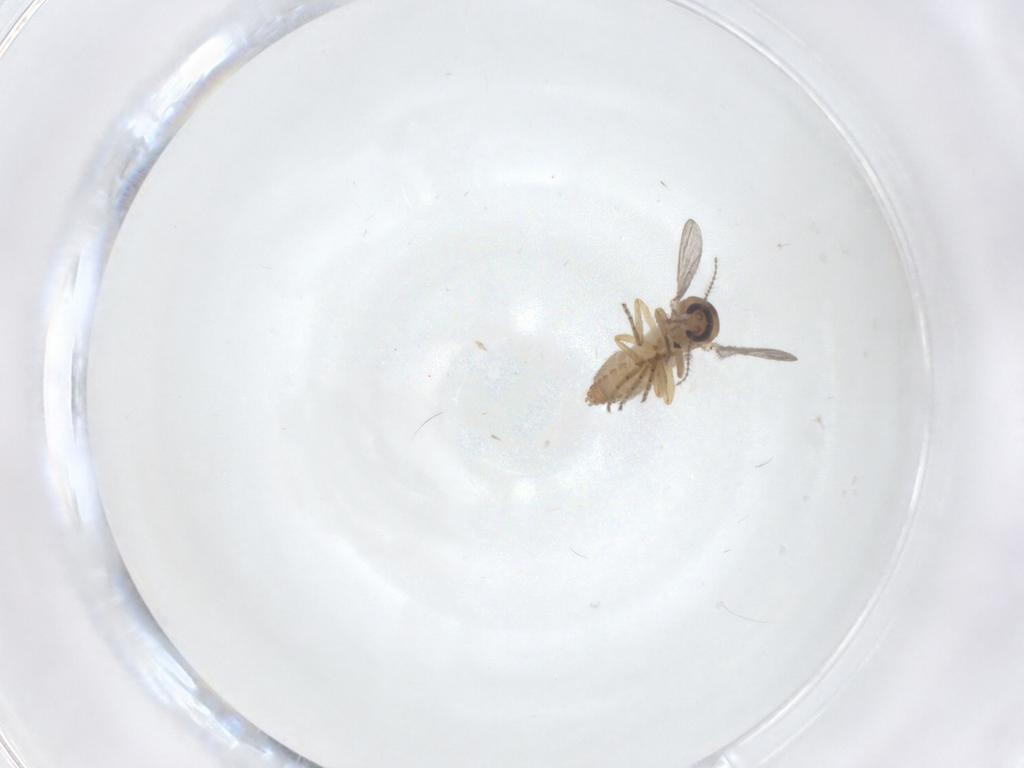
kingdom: Animalia
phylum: Arthropoda
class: Insecta
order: Diptera
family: Ceratopogonidae
